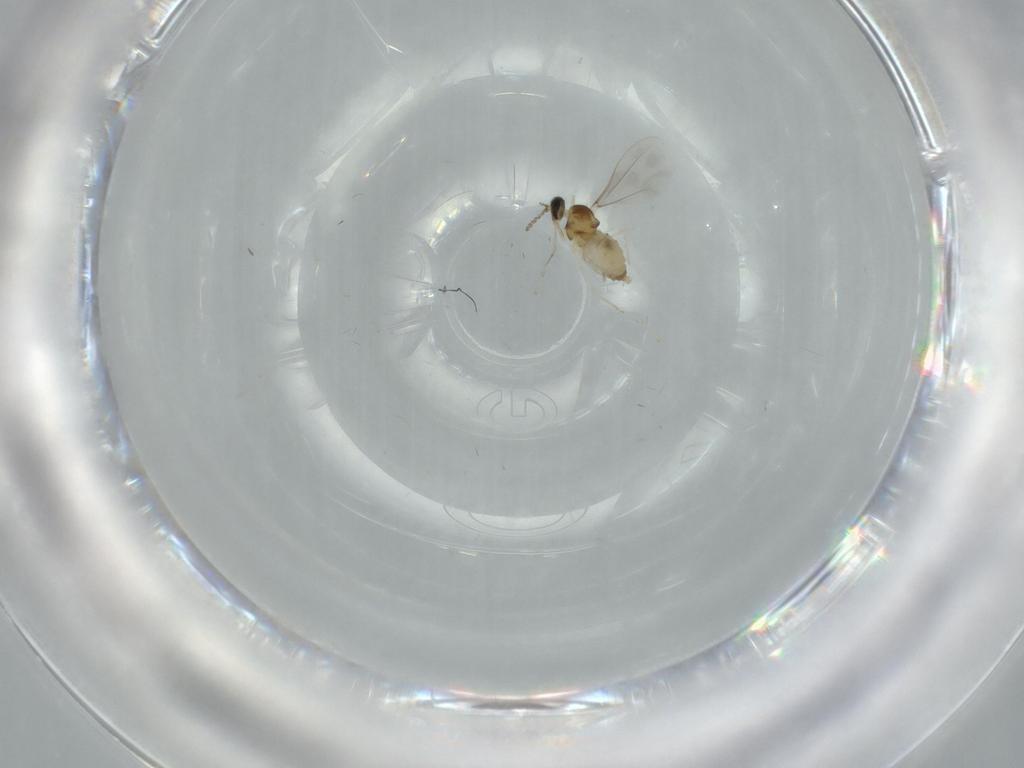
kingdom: Animalia
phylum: Arthropoda
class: Insecta
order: Diptera
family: Cecidomyiidae
